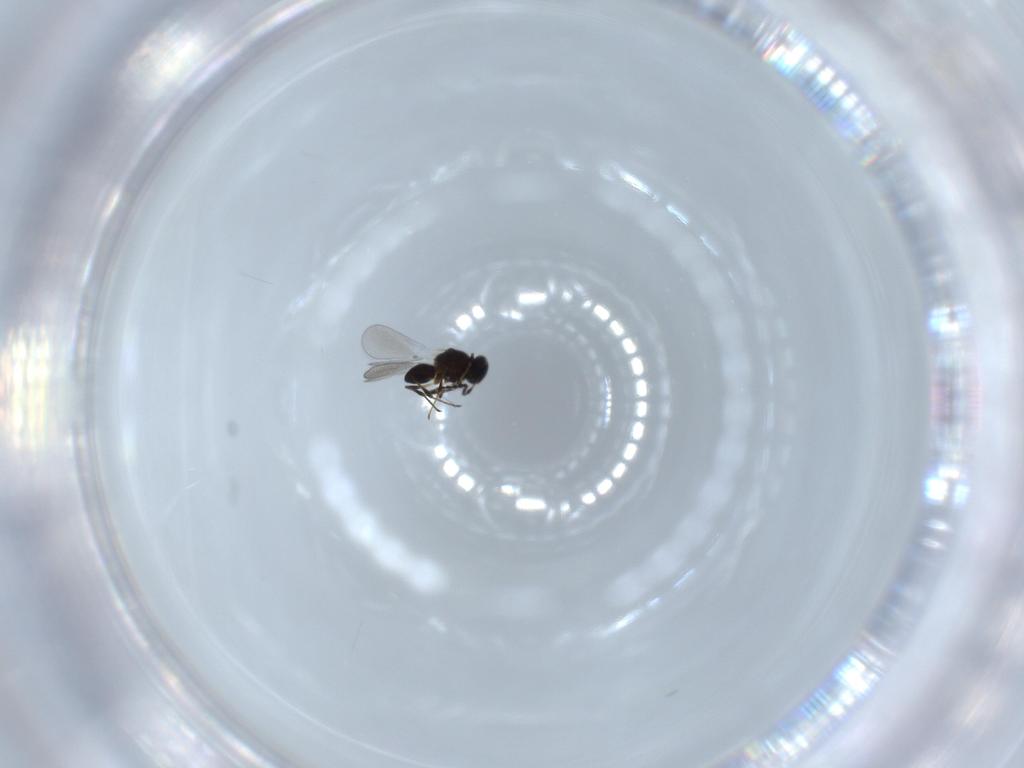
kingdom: Animalia
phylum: Arthropoda
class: Insecta
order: Hymenoptera
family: Platygastridae
